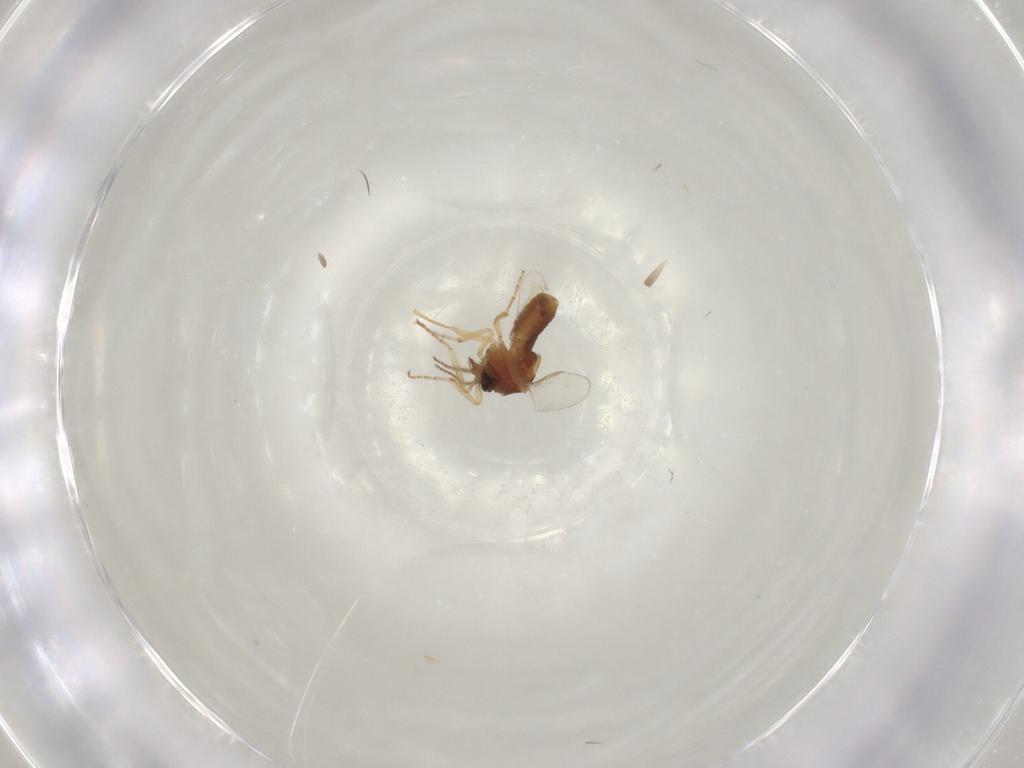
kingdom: Animalia
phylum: Arthropoda
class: Insecta
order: Diptera
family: Ceratopogonidae
